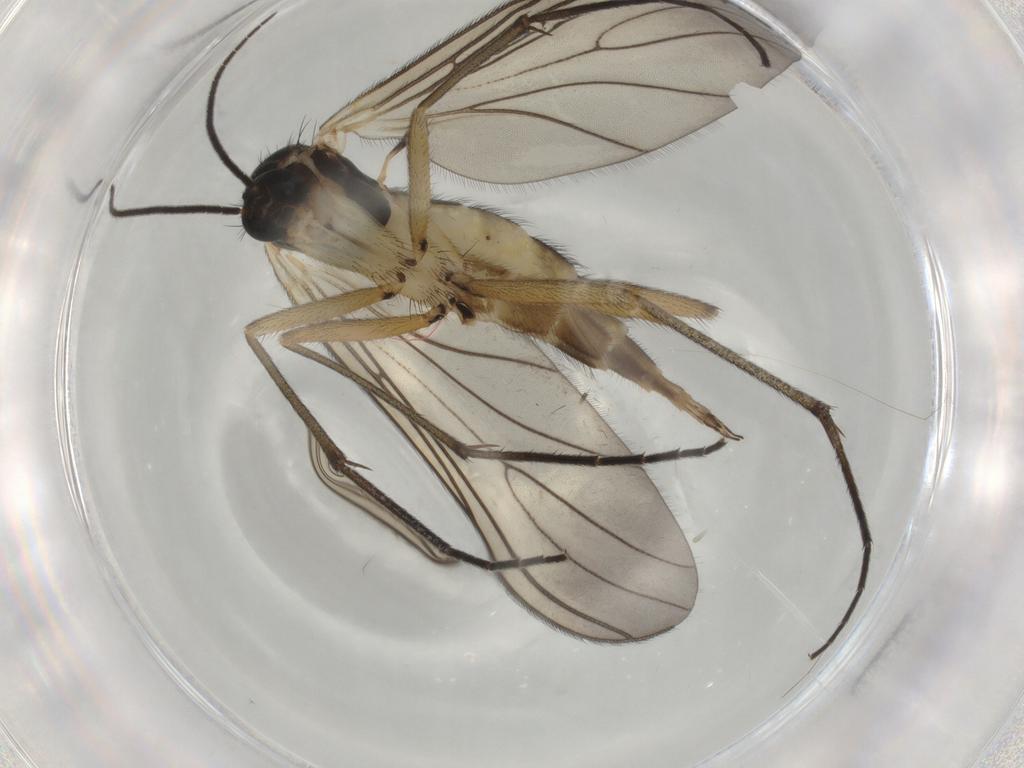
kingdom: Animalia
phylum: Arthropoda
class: Insecta
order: Diptera
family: Sciaridae
